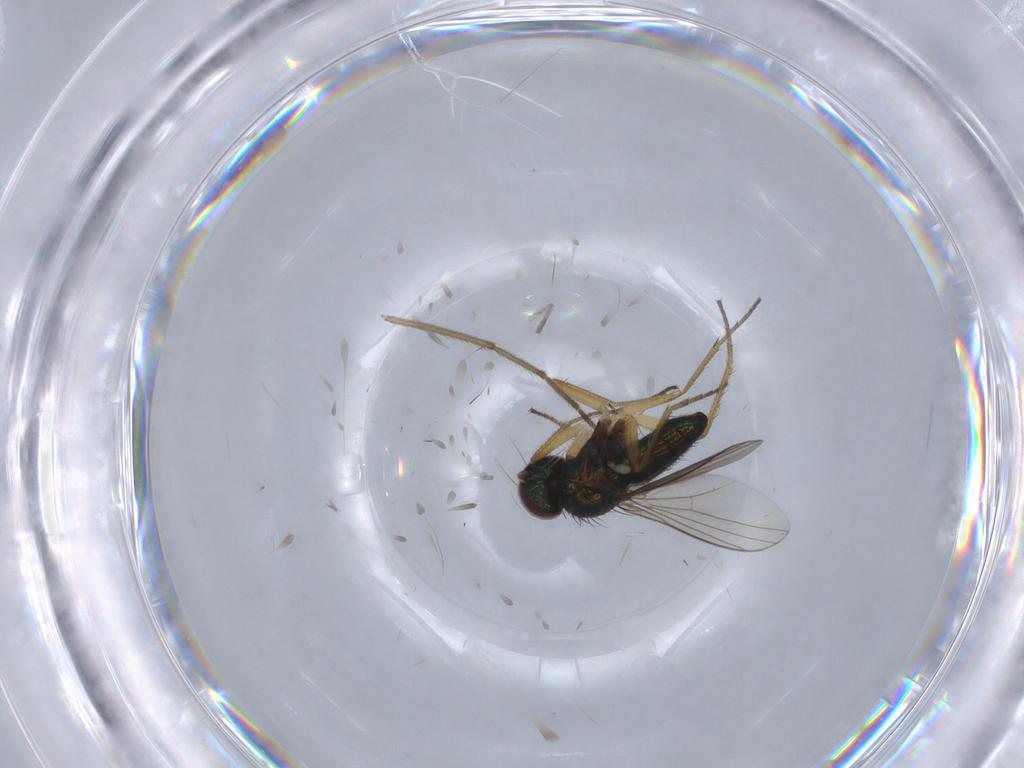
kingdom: Animalia
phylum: Arthropoda
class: Insecta
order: Diptera
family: Psychodidae
